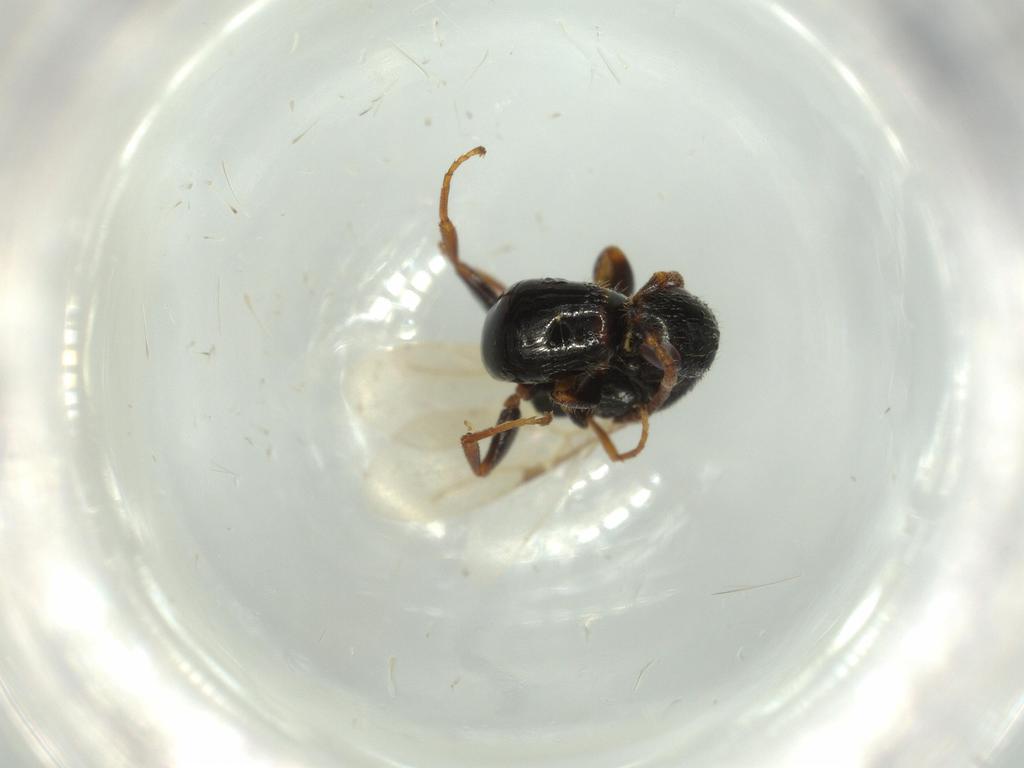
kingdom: Animalia
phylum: Arthropoda
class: Insecta
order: Hymenoptera
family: Bethylidae
